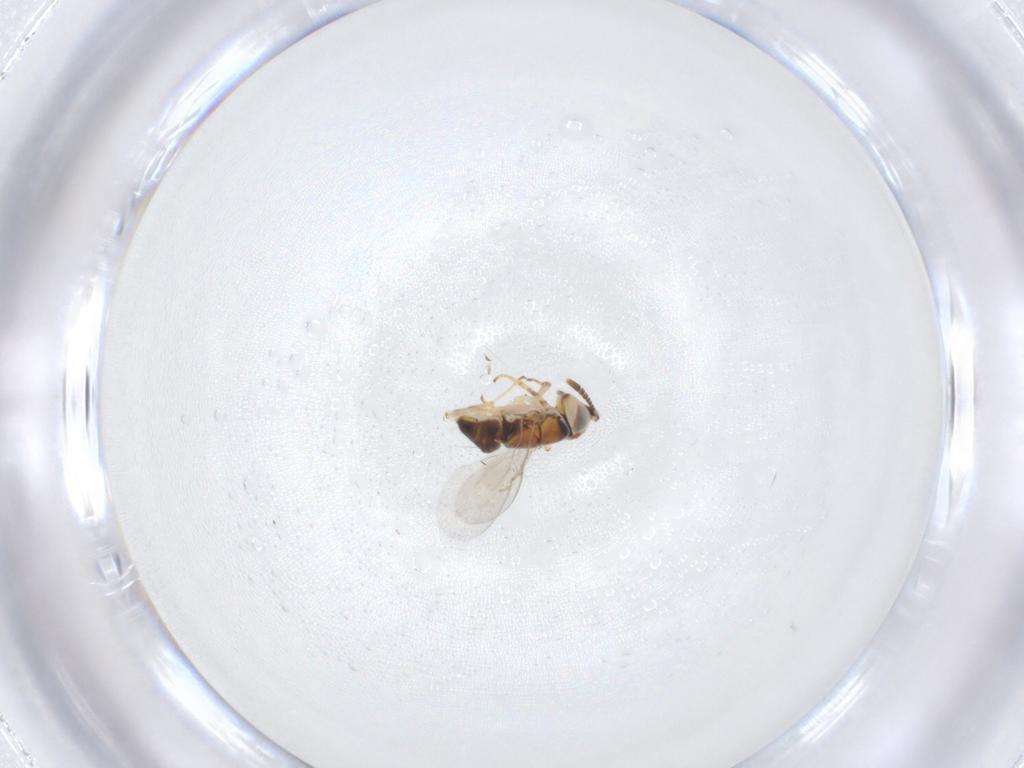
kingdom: Animalia
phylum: Arthropoda
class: Insecta
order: Hymenoptera
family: Encyrtidae
